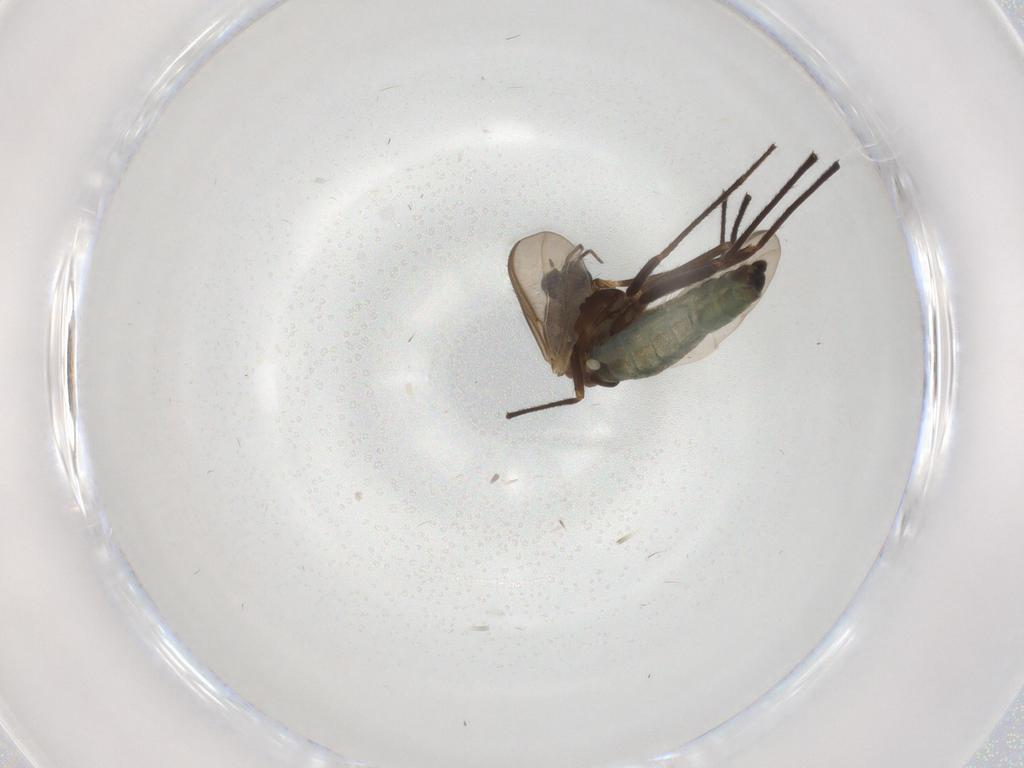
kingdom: Animalia
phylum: Arthropoda
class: Insecta
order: Diptera
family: Chironomidae
